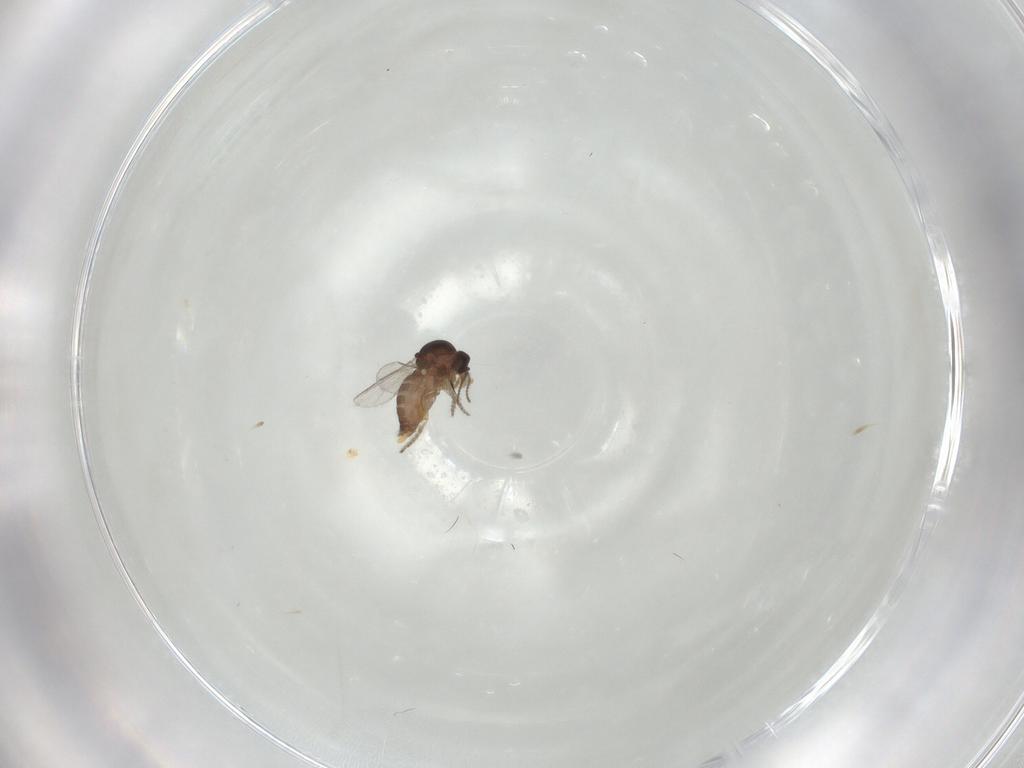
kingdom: Animalia
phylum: Arthropoda
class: Insecta
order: Diptera
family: Ceratopogonidae
